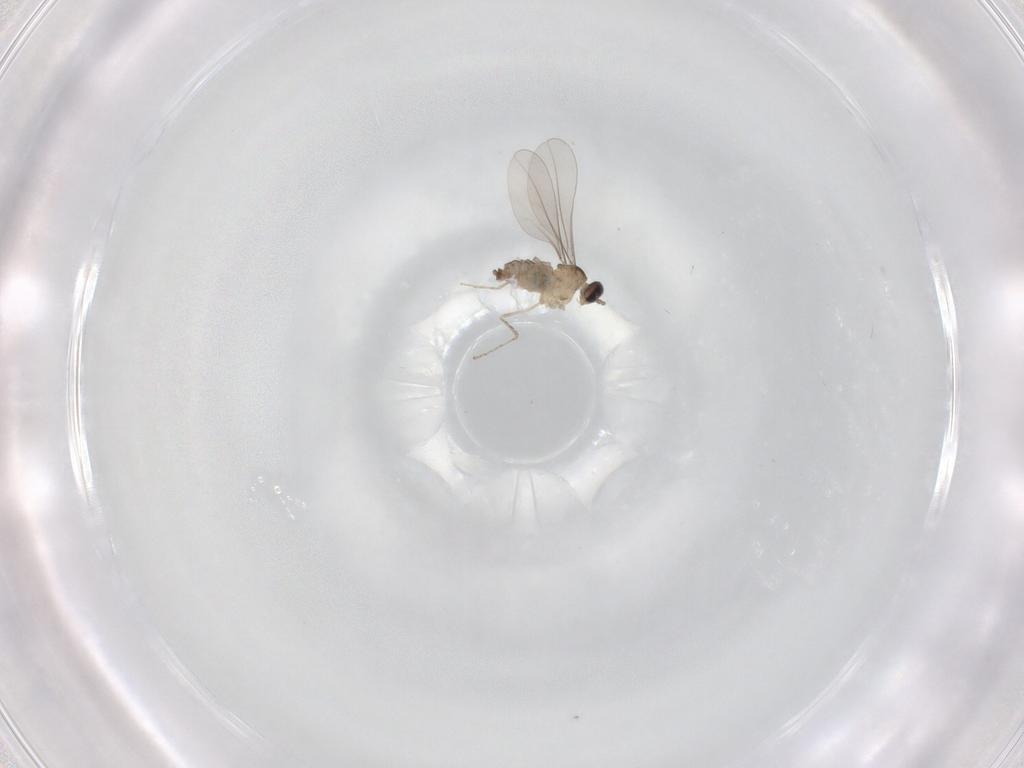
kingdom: Animalia
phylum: Arthropoda
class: Insecta
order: Diptera
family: Cecidomyiidae
